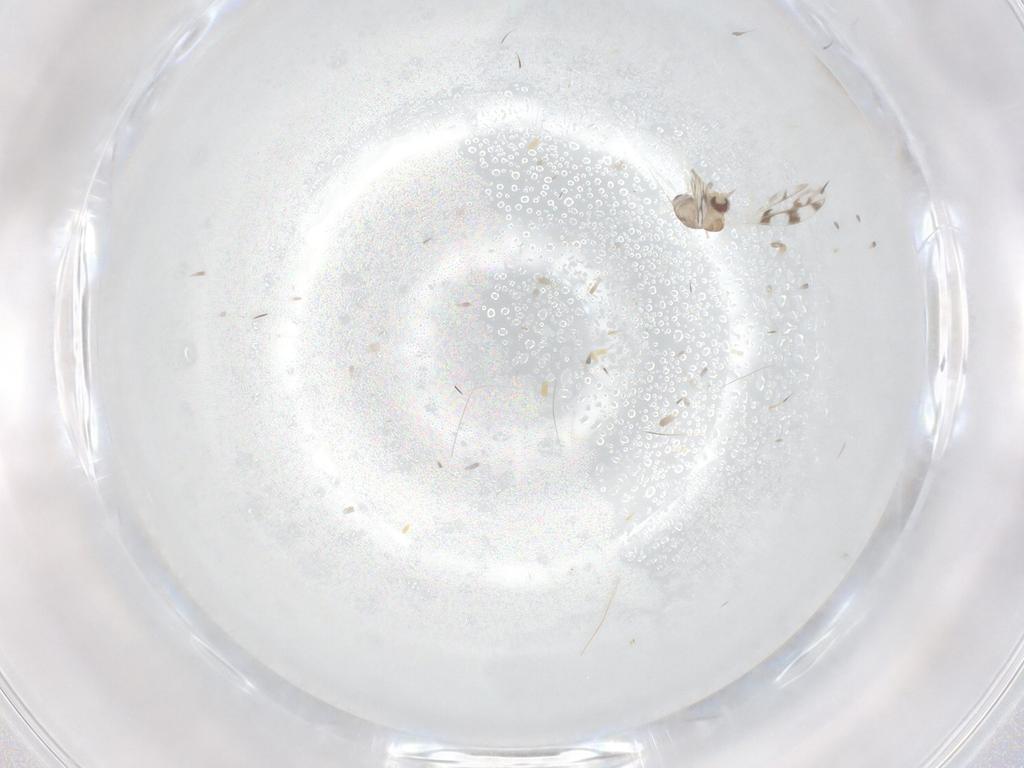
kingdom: Animalia
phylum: Arthropoda
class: Insecta
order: Diptera
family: Cecidomyiidae
